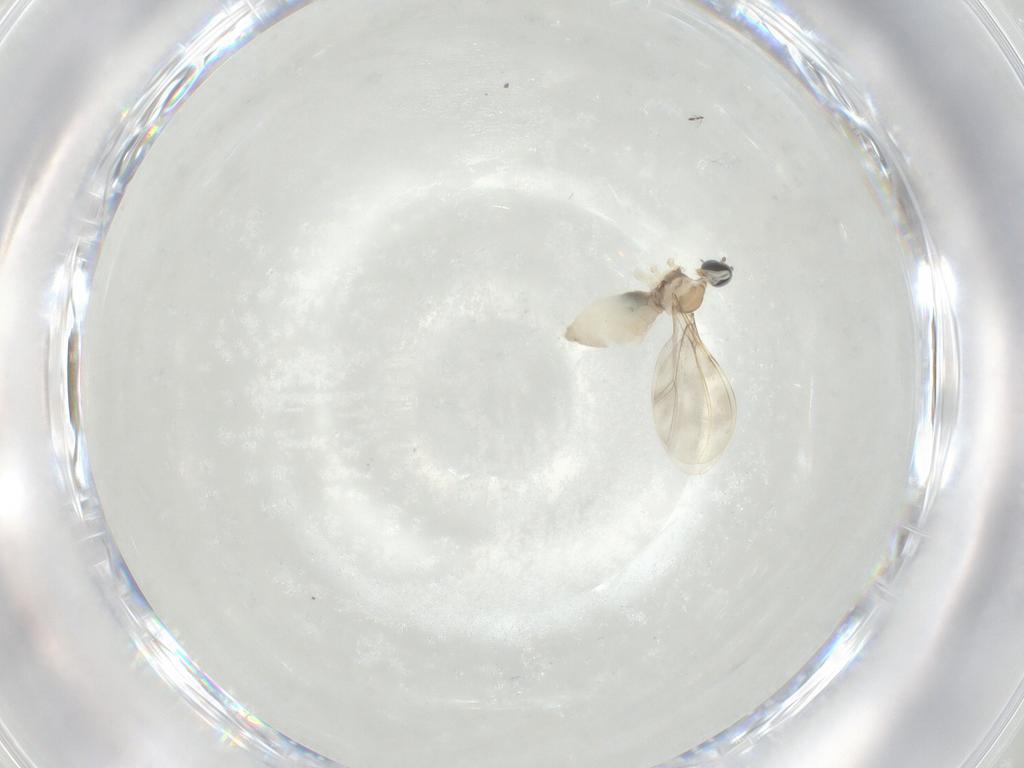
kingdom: Animalia
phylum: Arthropoda
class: Insecta
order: Diptera
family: Cecidomyiidae
